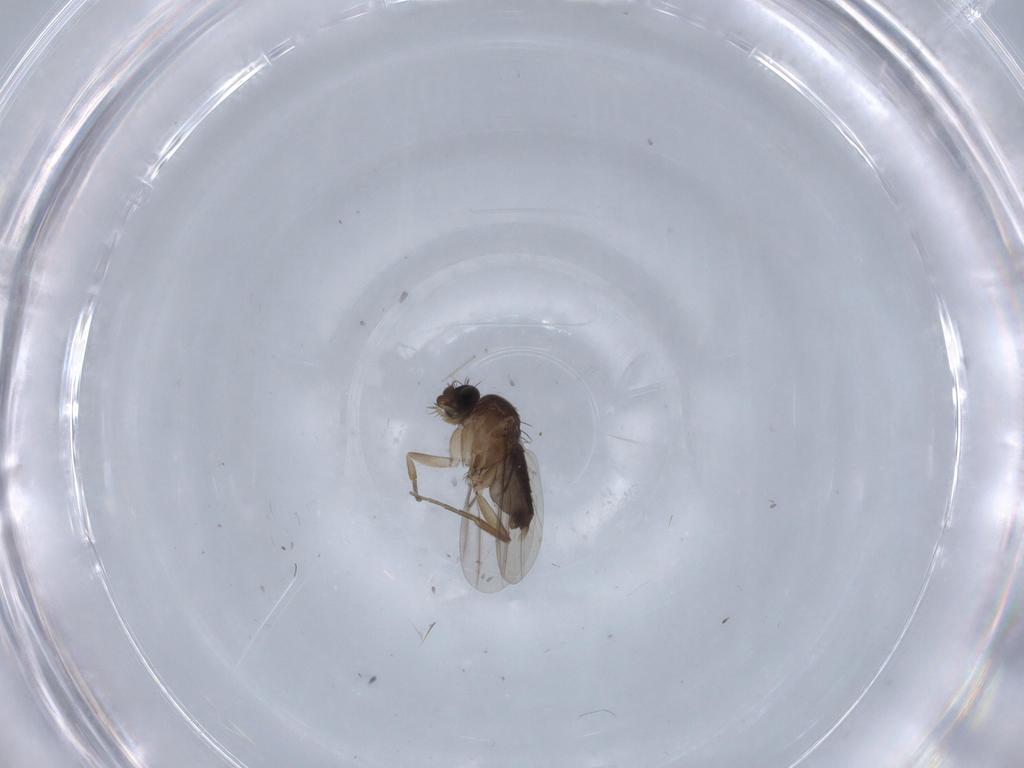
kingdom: Animalia
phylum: Arthropoda
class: Insecta
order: Diptera
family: Phoridae
